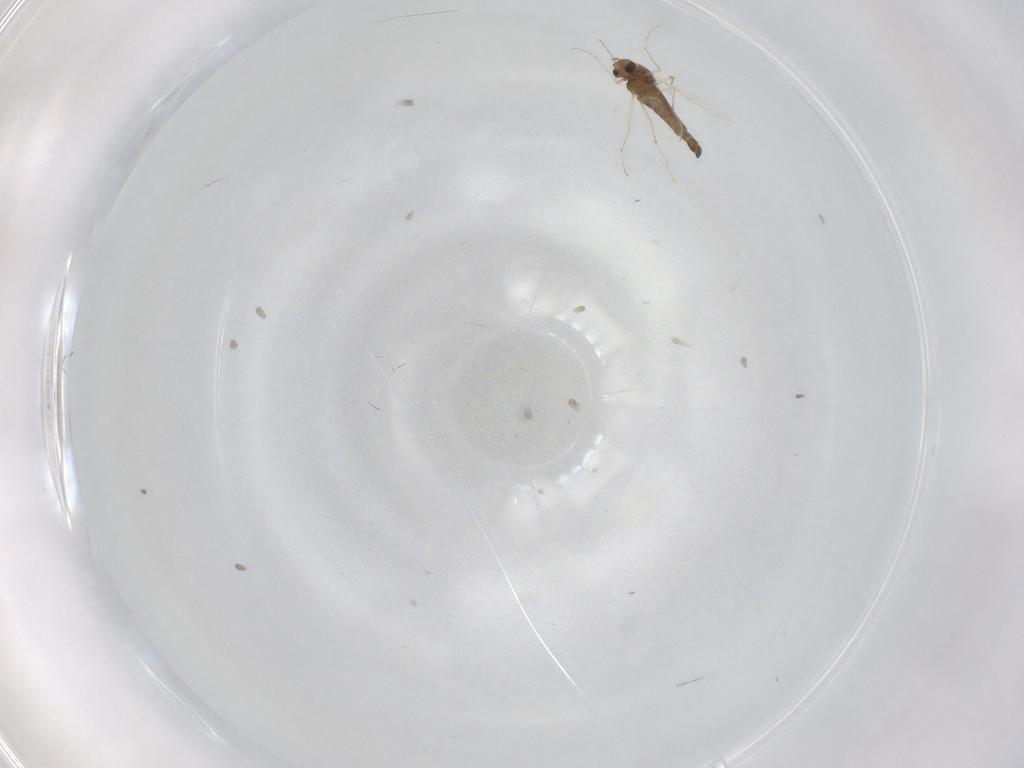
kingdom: Animalia
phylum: Arthropoda
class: Insecta
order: Diptera
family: Chironomidae
